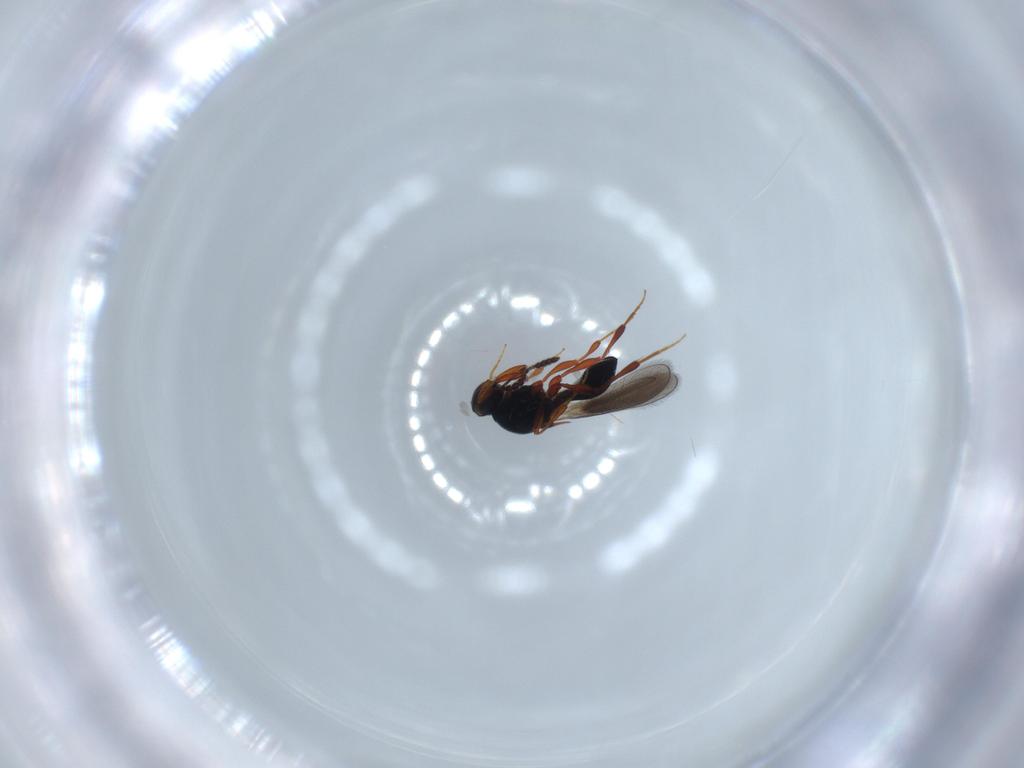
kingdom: Animalia
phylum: Arthropoda
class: Insecta
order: Hymenoptera
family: Platygastridae
